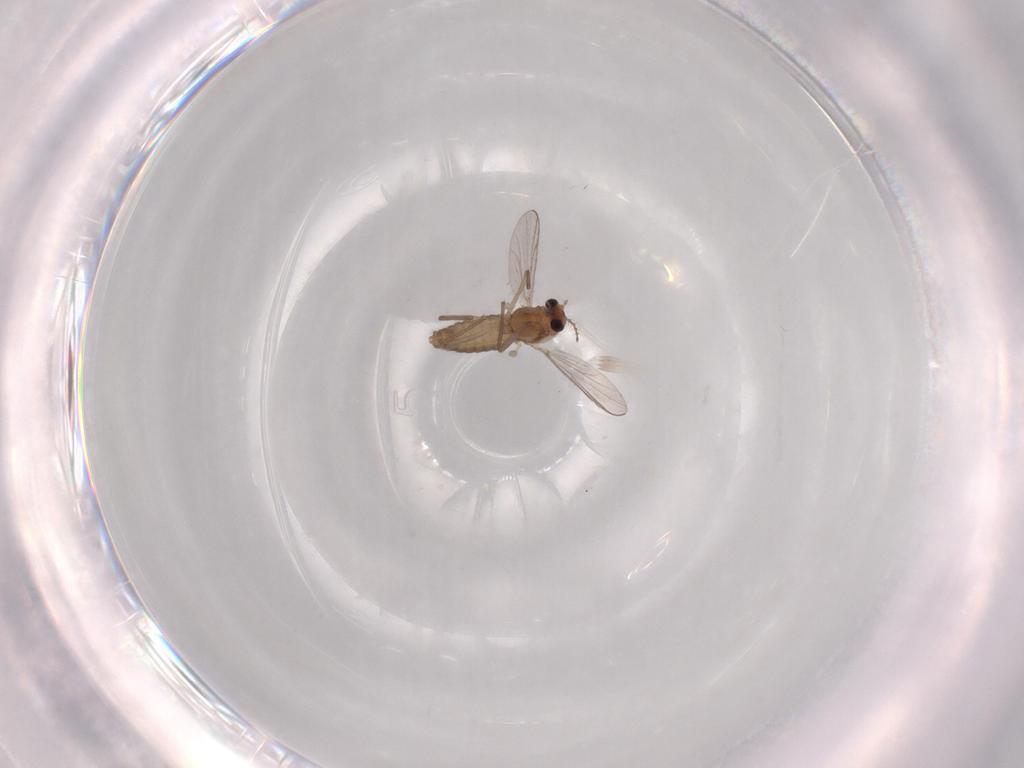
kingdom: Animalia
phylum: Arthropoda
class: Insecta
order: Diptera
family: Chironomidae
